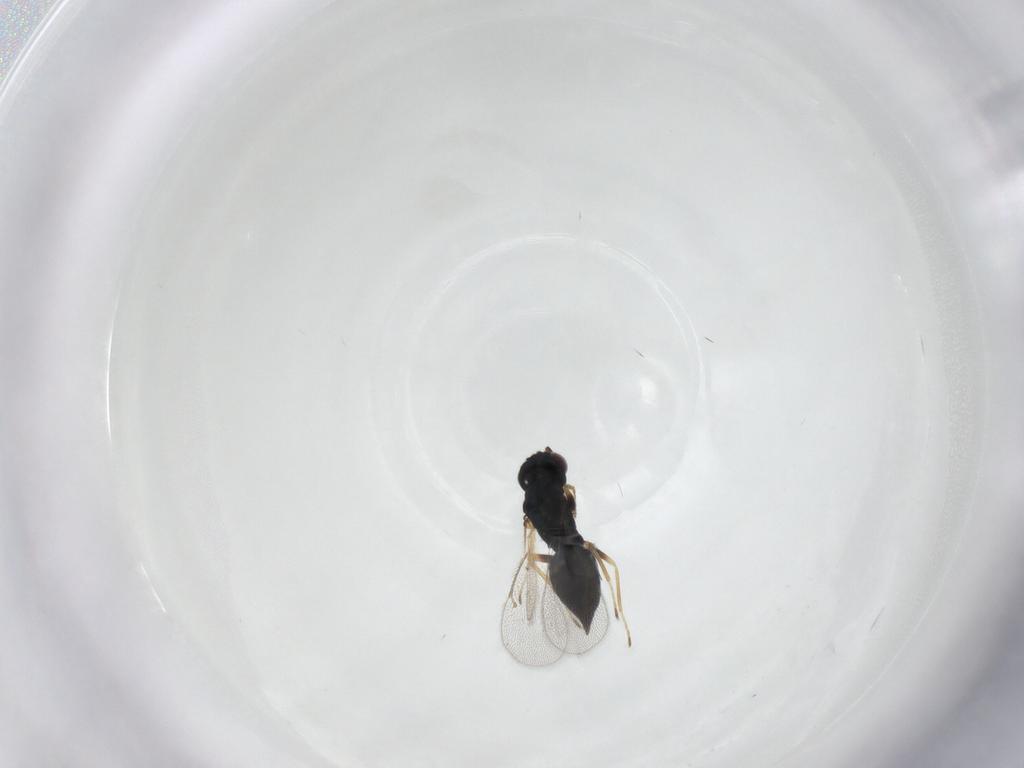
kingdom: Animalia
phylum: Arthropoda
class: Insecta
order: Hymenoptera
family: Eulophidae
